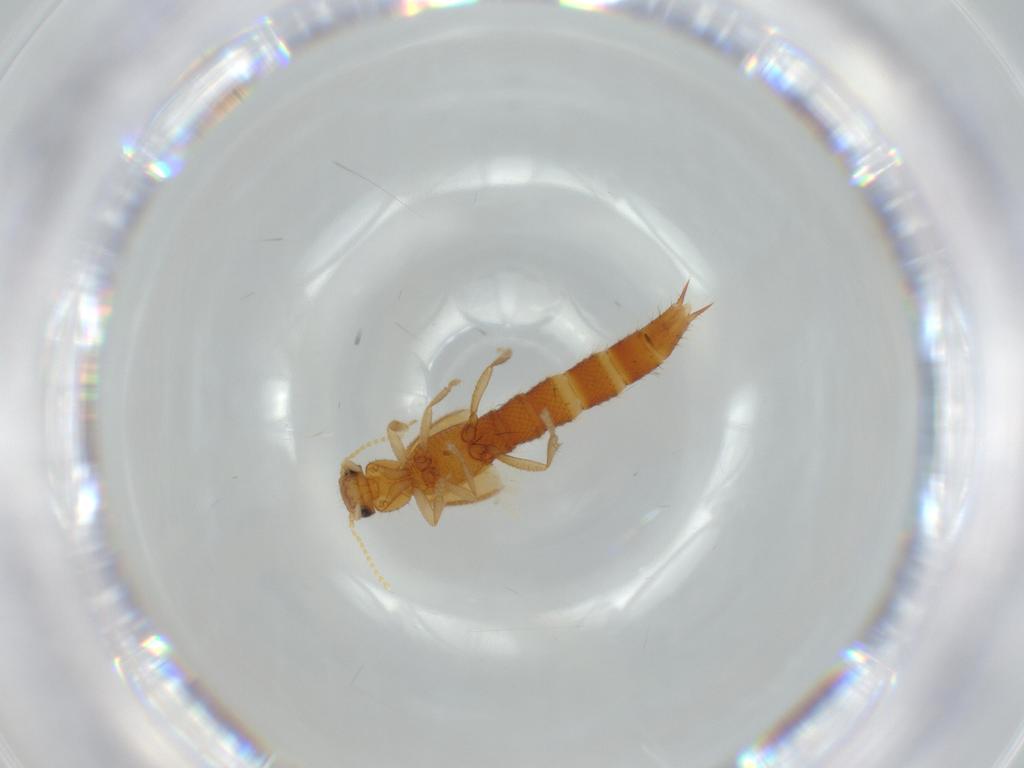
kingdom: Animalia
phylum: Arthropoda
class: Insecta
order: Coleoptera
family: Staphylinidae
